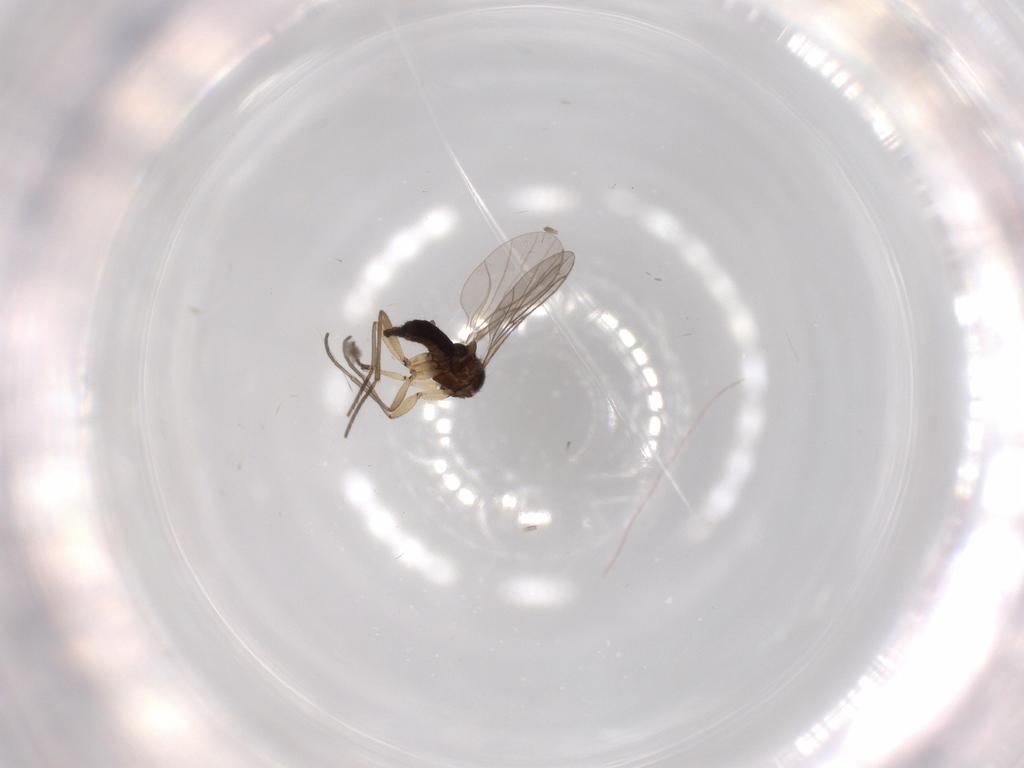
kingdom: Animalia
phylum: Arthropoda
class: Insecta
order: Diptera
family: Sciaridae
